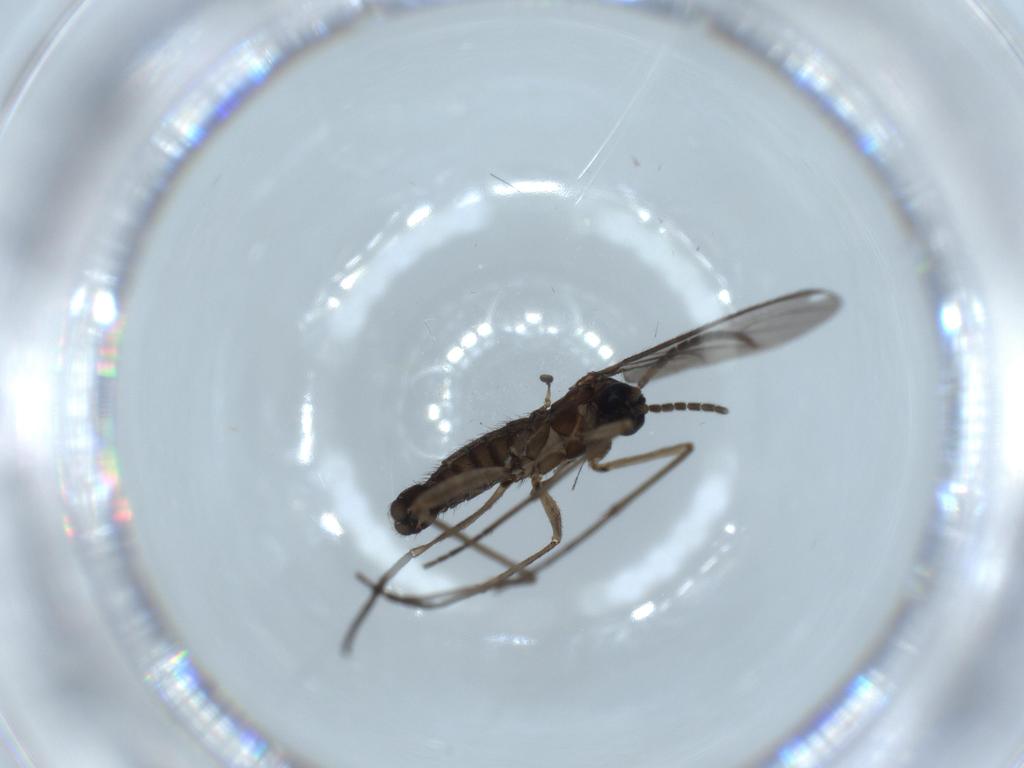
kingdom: Animalia
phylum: Arthropoda
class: Insecta
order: Diptera
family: Sciaridae
